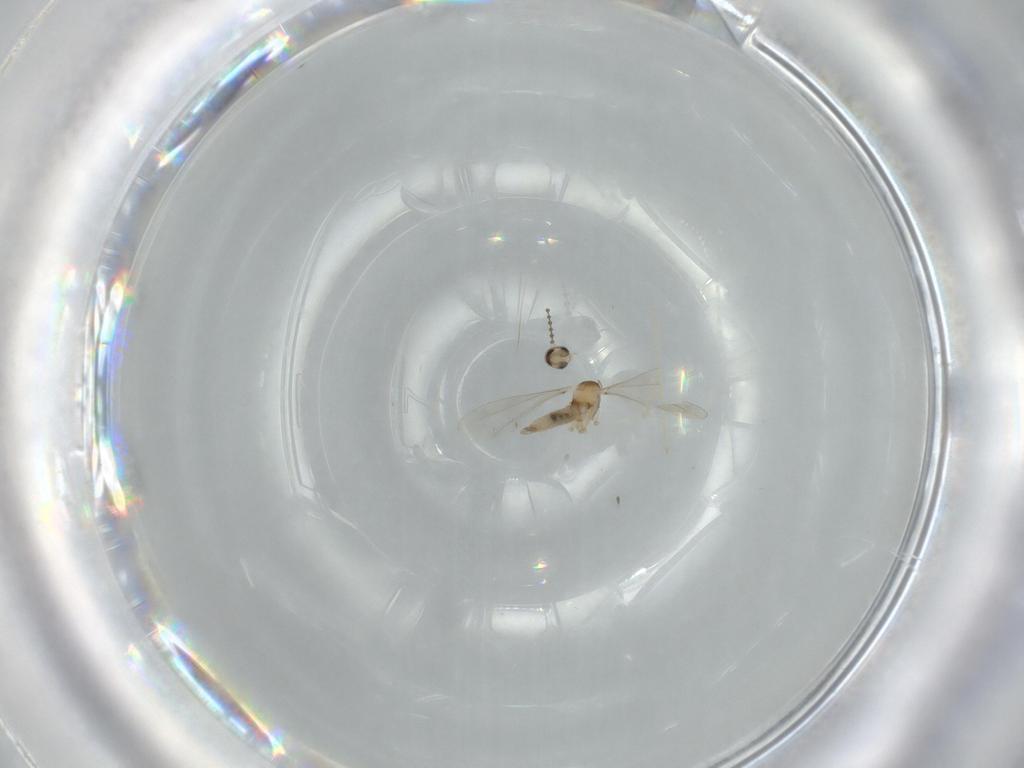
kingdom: Animalia
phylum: Arthropoda
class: Insecta
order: Diptera
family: Cecidomyiidae
